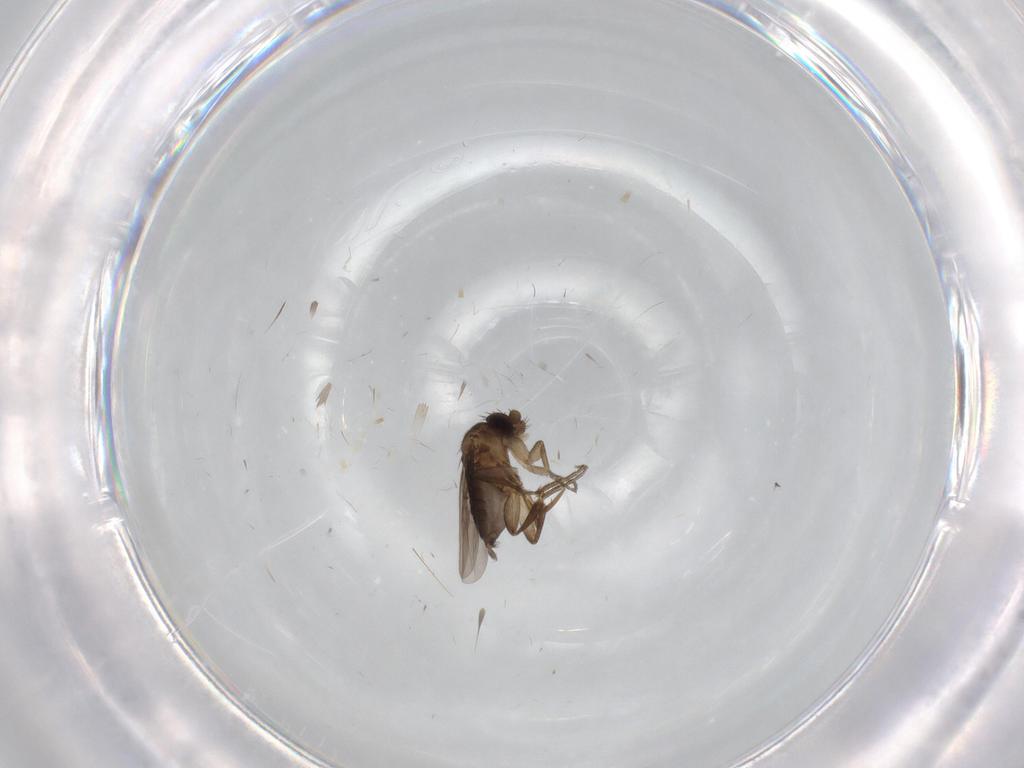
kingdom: Animalia
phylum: Arthropoda
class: Insecta
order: Diptera
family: Phoridae
